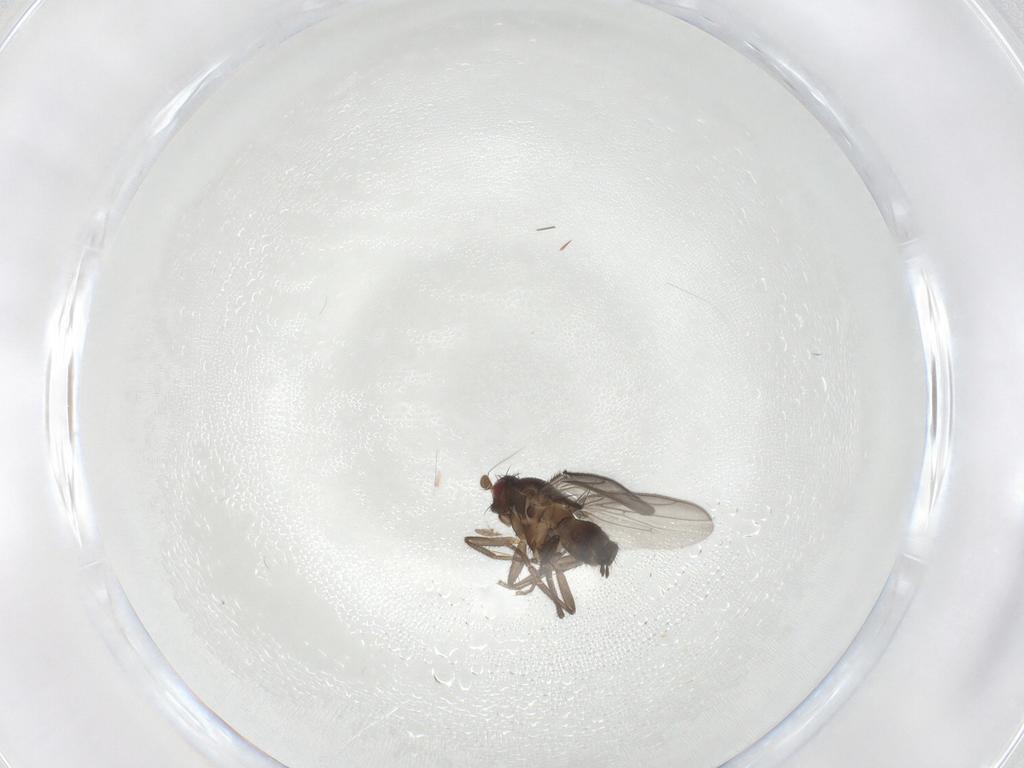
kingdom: Animalia
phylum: Arthropoda
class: Insecta
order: Diptera
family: Sphaeroceridae
